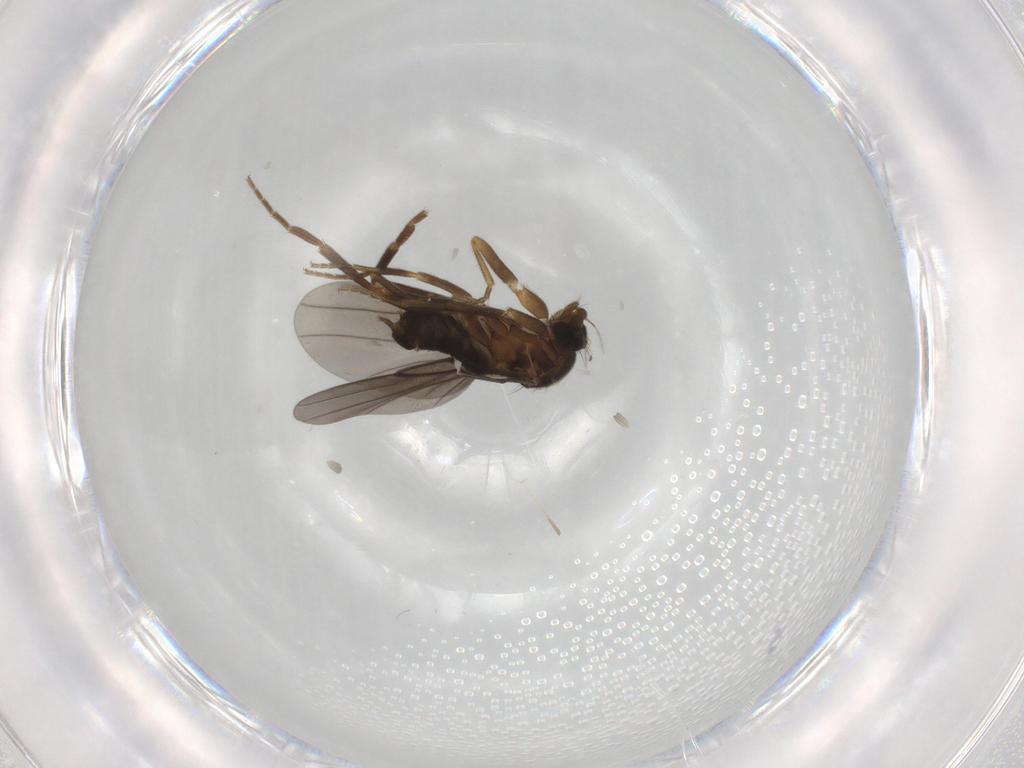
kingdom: Animalia
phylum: Arthropoda
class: Insecta
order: Diptera
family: Phoridae
